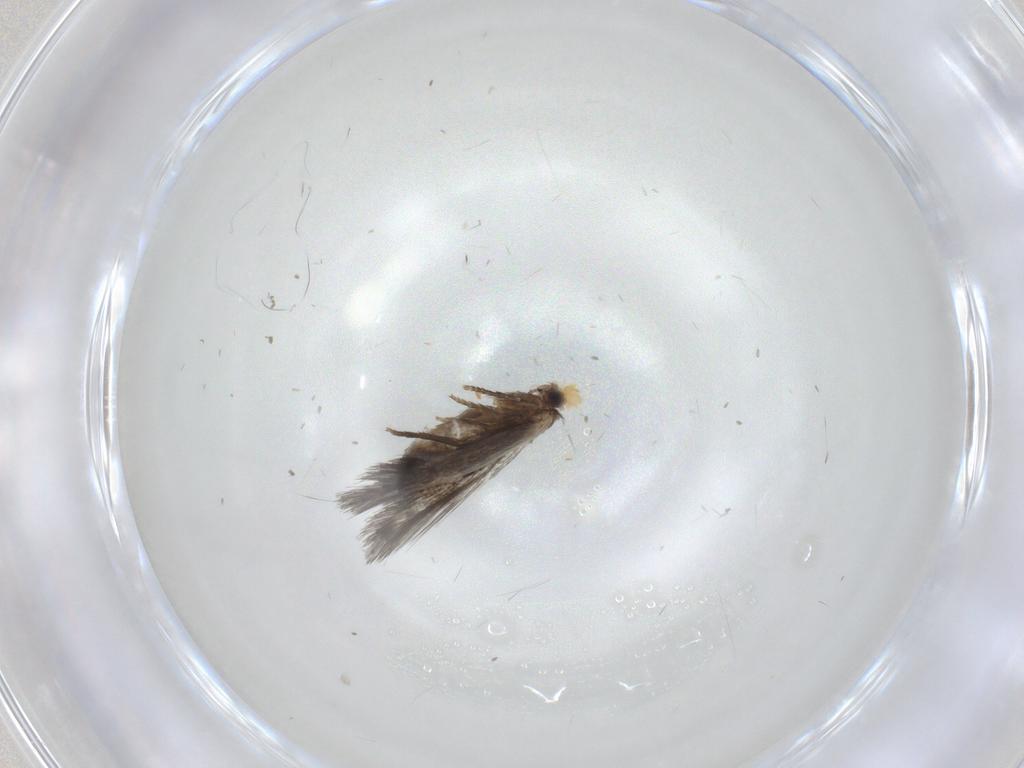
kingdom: Animalia
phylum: Arthropoda
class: Insecta
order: Lepidoptera
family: Nepticulidae
